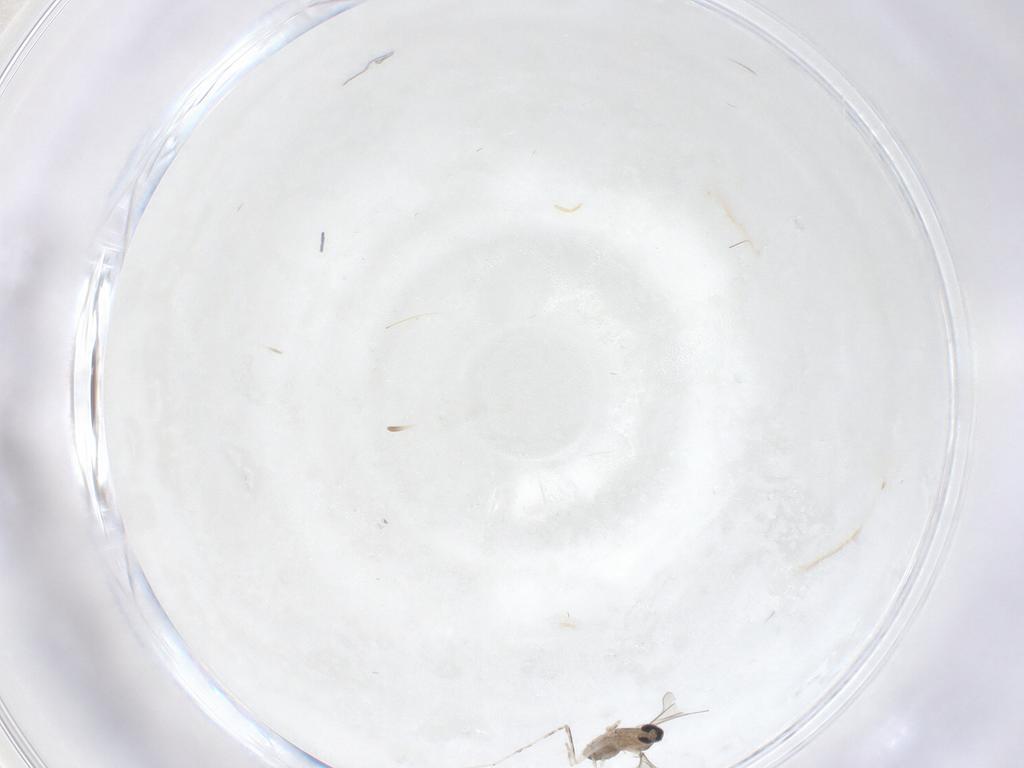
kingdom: Animalia
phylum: Arthropoda
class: Insecta
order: Diptera
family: Cecidomyiidae
